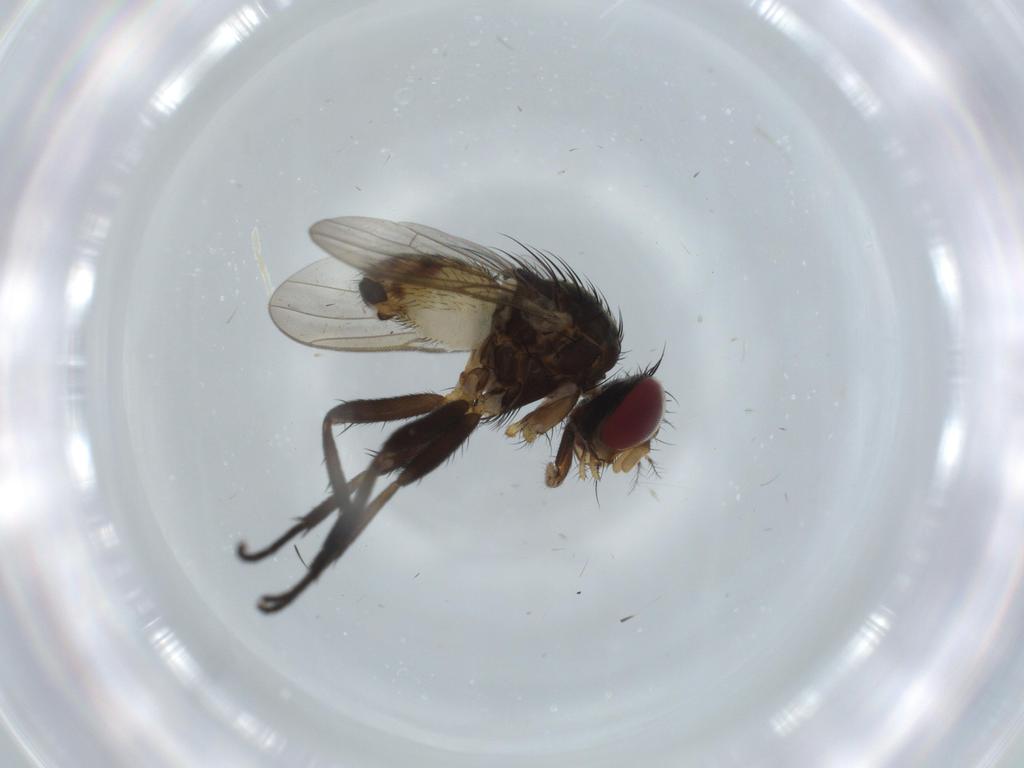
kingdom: Animalia
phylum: Arthropoda
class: Insecta
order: Diptera
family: Anthomyiidae
